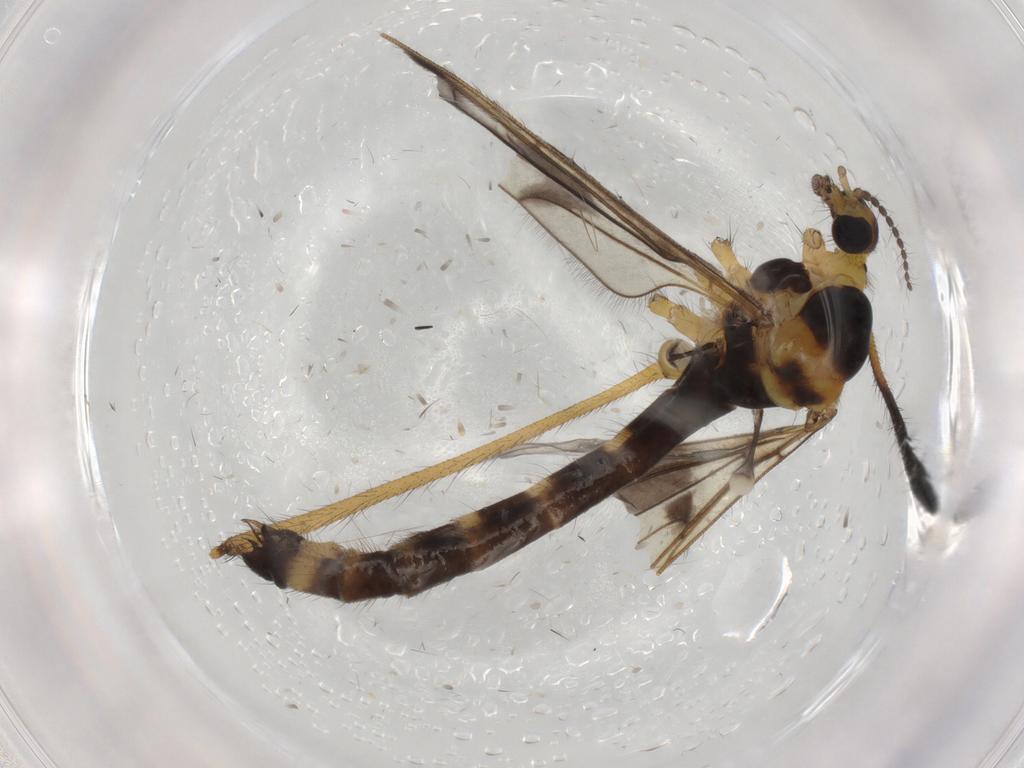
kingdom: Animalia
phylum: Arthropoda
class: Insecta
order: Diptera
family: Limoniidae
